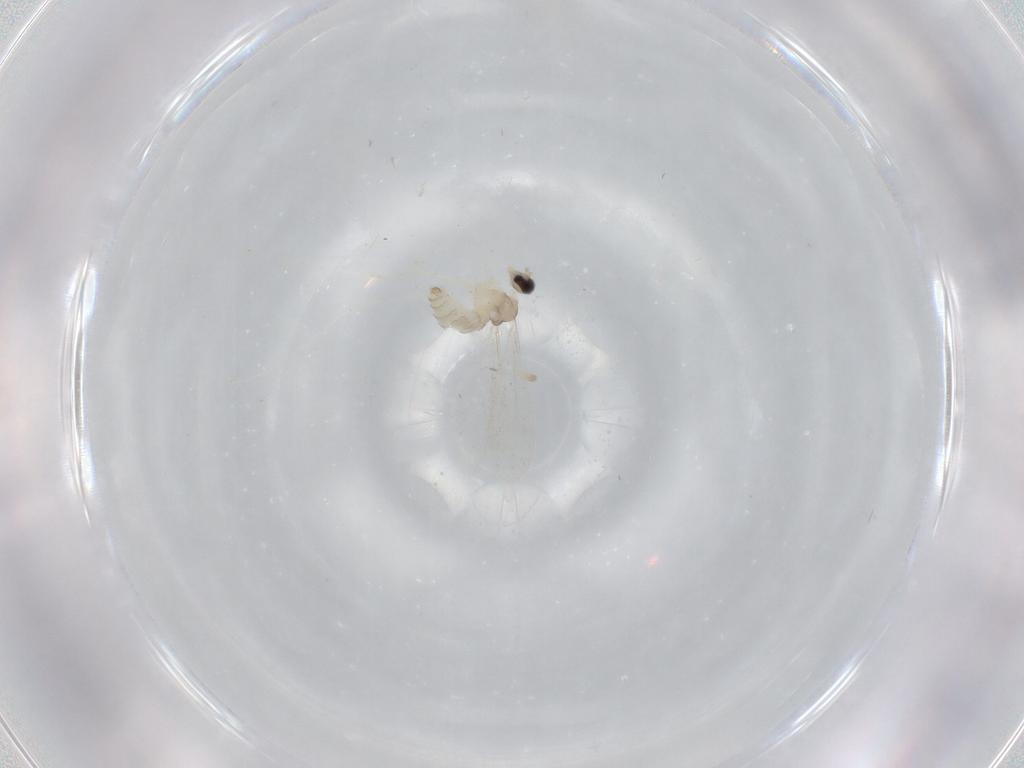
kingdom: Animalia
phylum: Arthropoda
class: Insecta
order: Diptera
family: Cecidomyiidae
